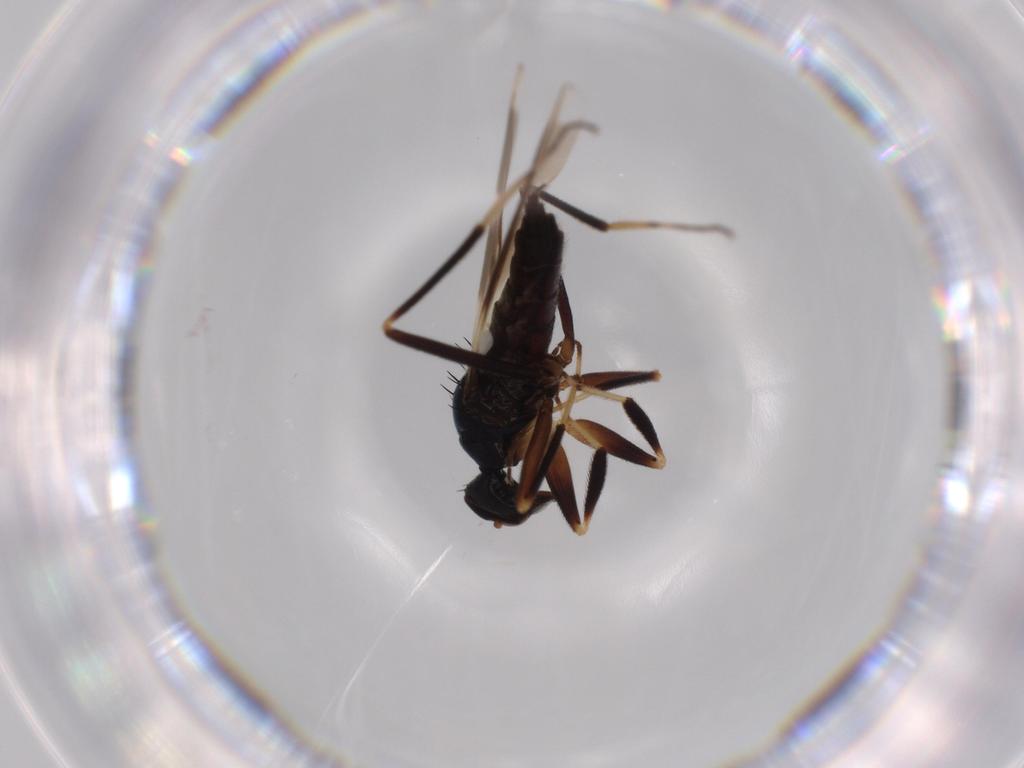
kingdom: Animalia
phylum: Arthropoda
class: Insecta
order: Diptera
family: Hybotidae
